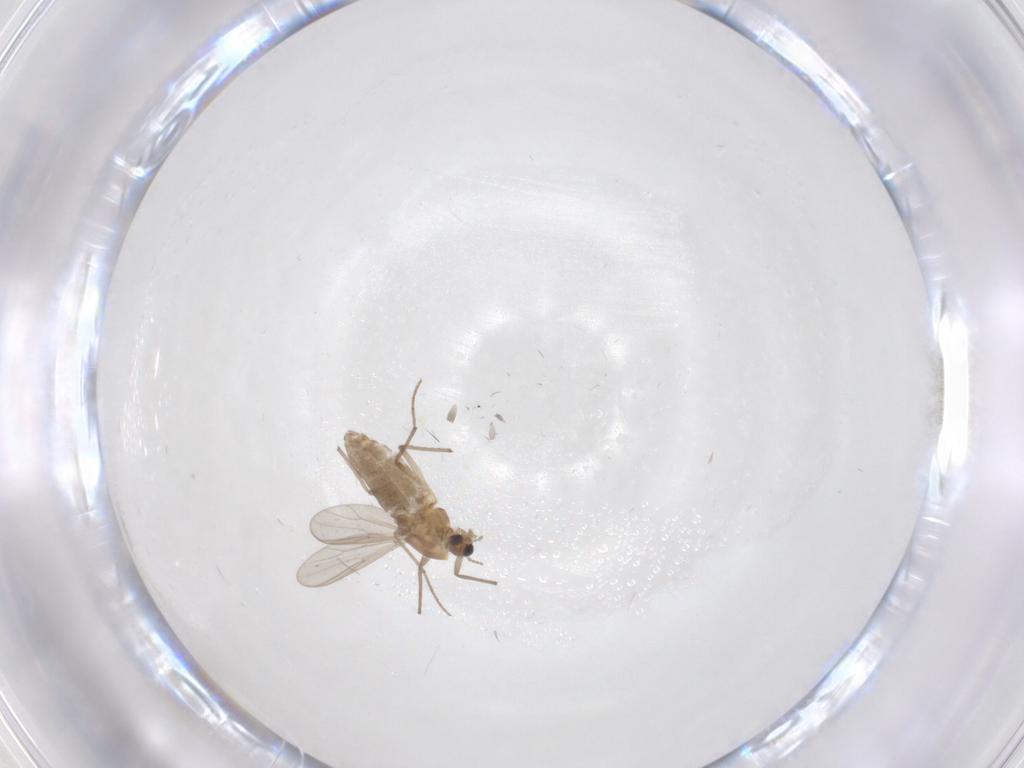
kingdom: Animalia
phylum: Arthropoda
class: Insecta
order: Diptera
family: Chironomidae
